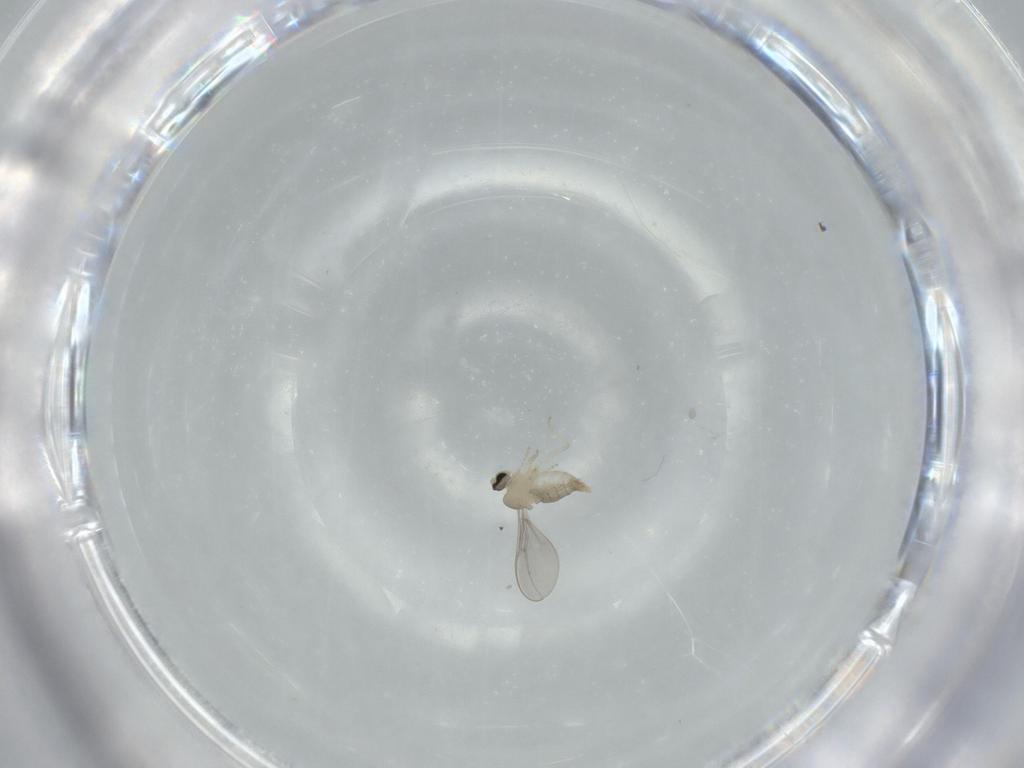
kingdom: Animalia
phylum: Arthropoda
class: Insecta
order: Diptera
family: Cecidomyiidae
